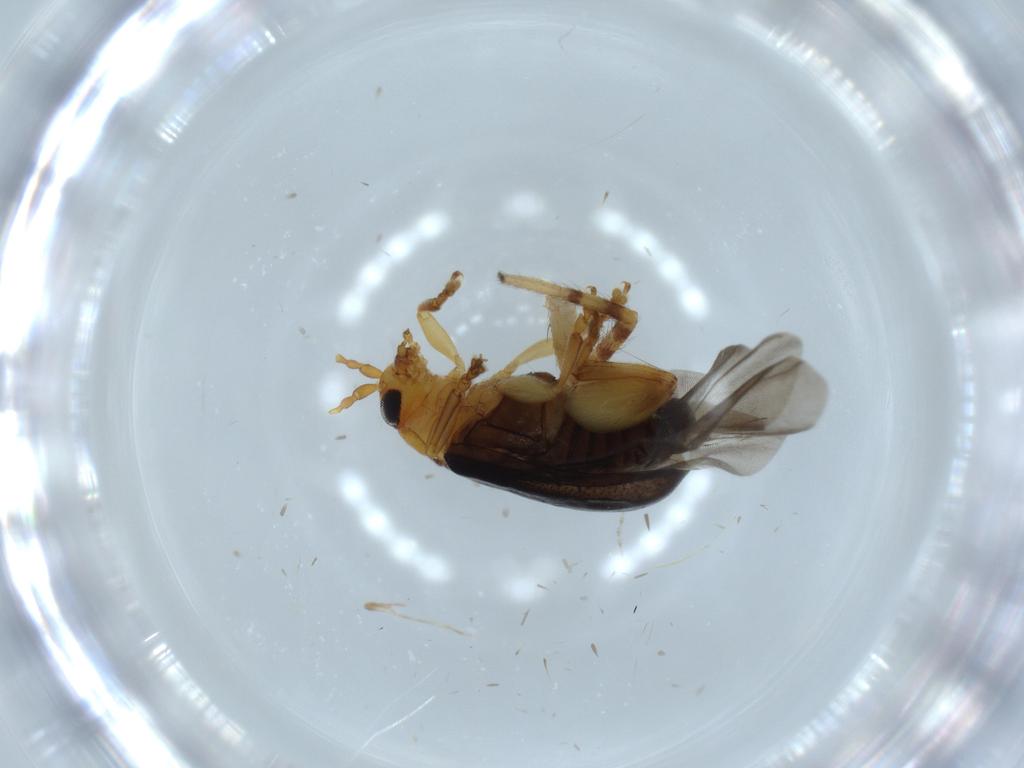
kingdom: Animalia
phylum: Arthropoda
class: Insecta
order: Coleoptera
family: Chrysomelidae
